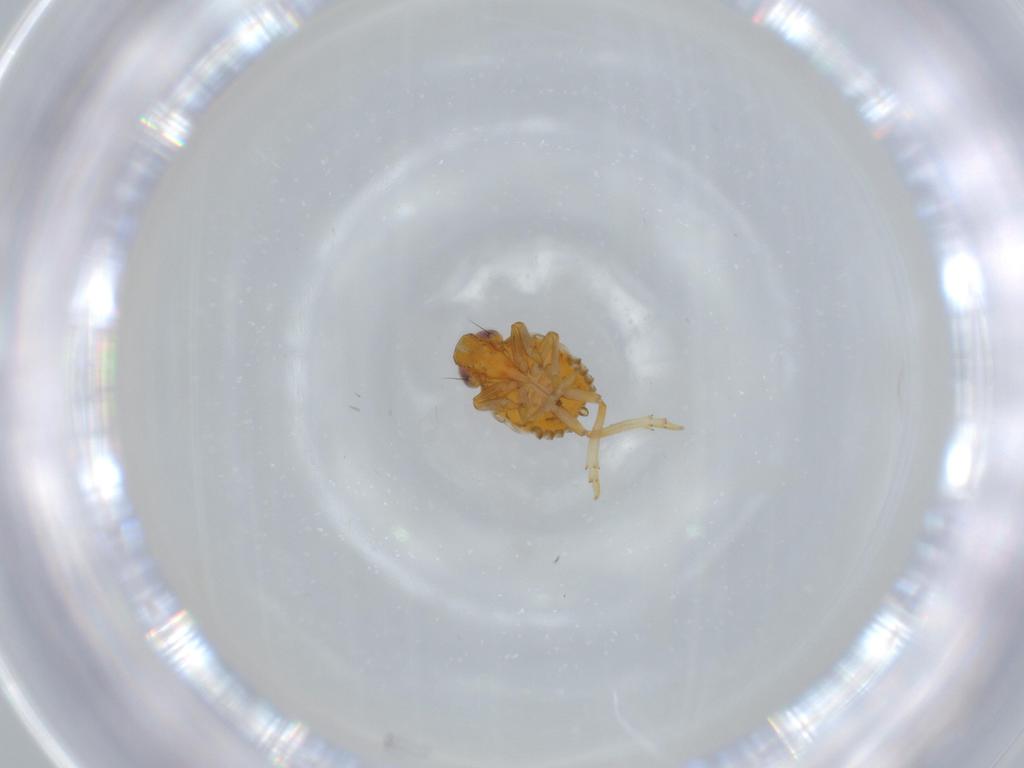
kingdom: Animalia
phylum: Arthropoda
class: Insecta
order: Hemiptera
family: Issidae
